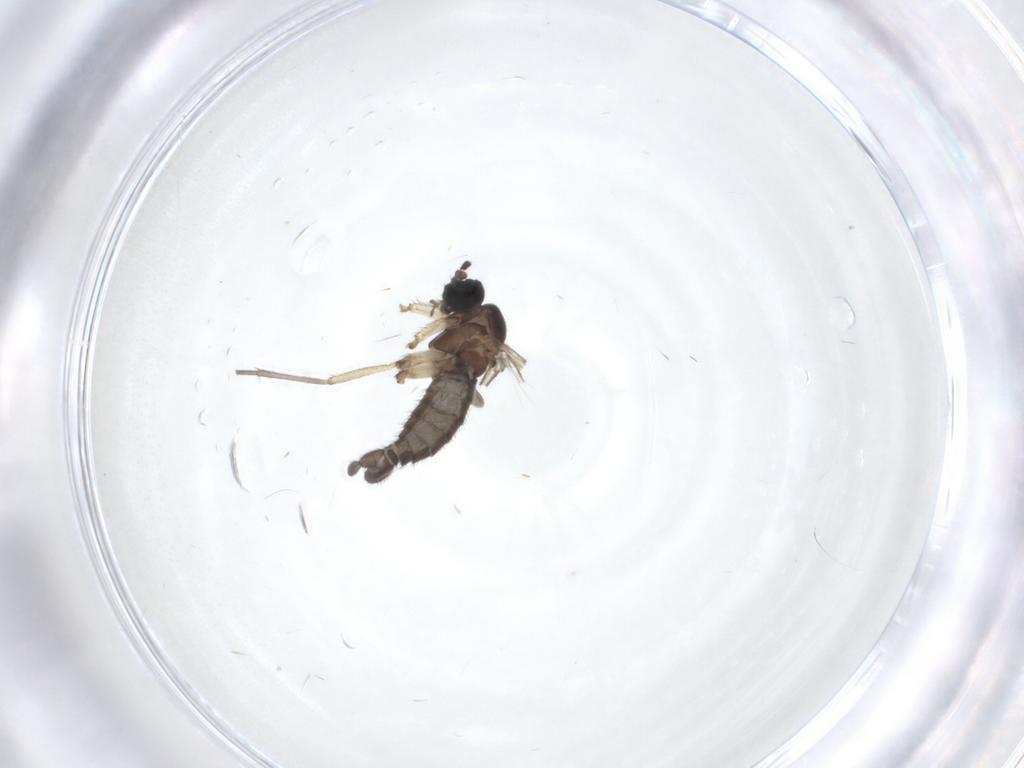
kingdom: Animalia
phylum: Arthropoda
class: Insecta
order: Diptera
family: Sciaridae
